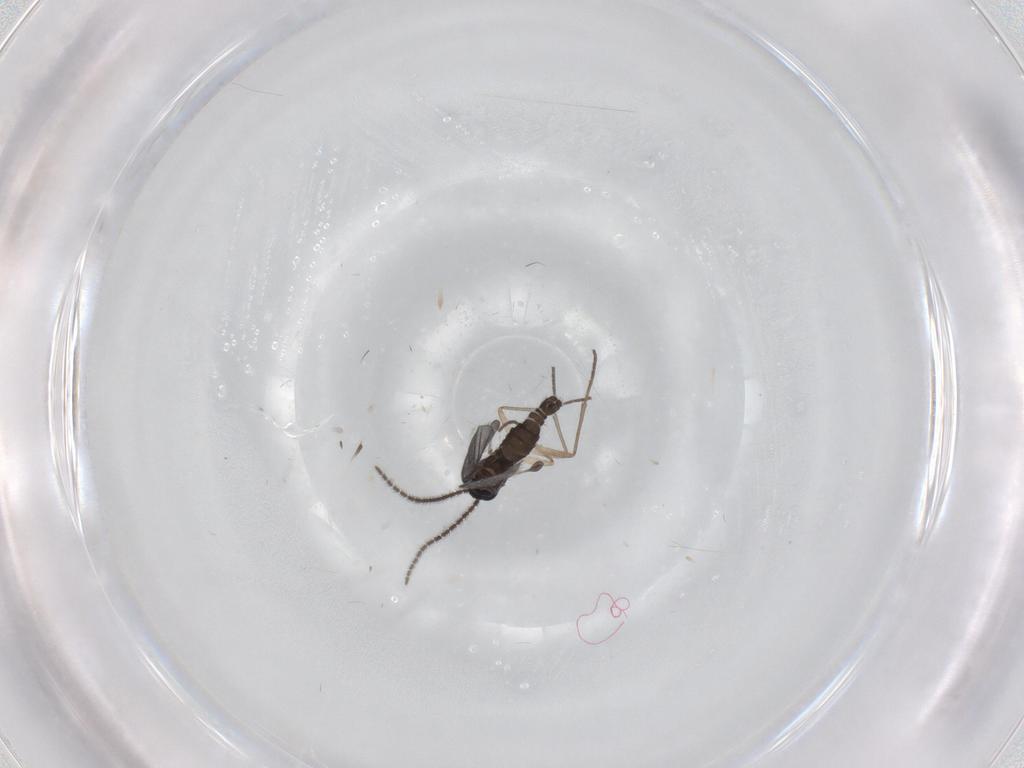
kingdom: Animalia
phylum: Arthropoda
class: Insecta
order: Diptera
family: Sciaridae
